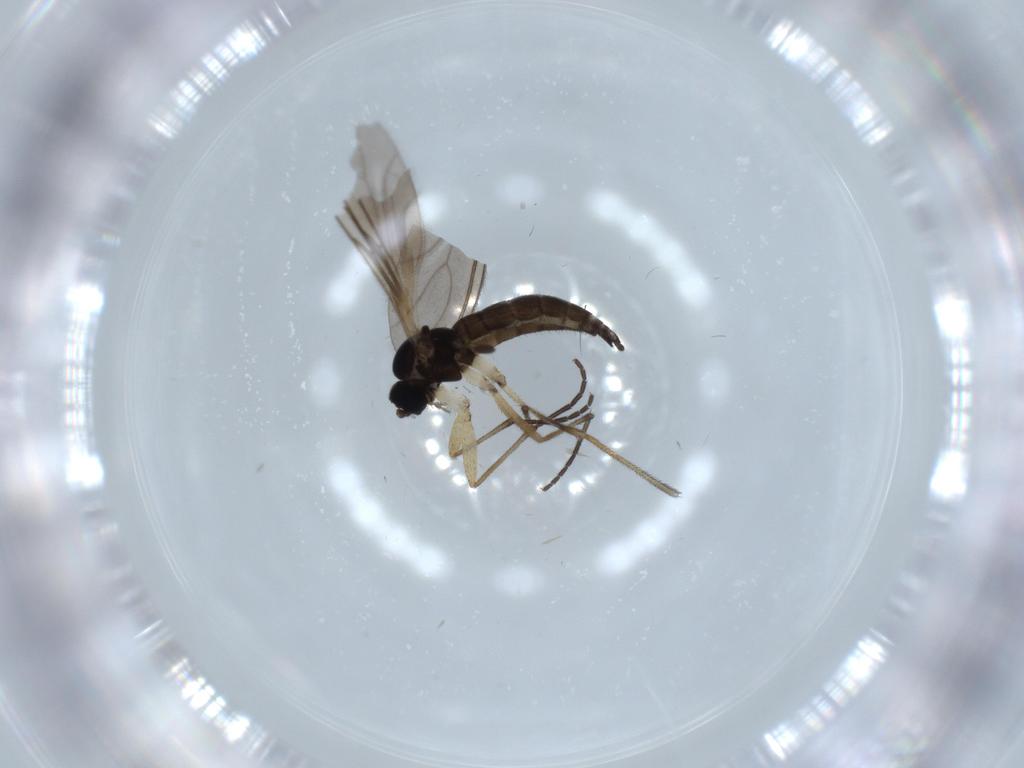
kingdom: Animalia
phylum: Arthropoda
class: Insecta
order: Diptera
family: Sciaridae
